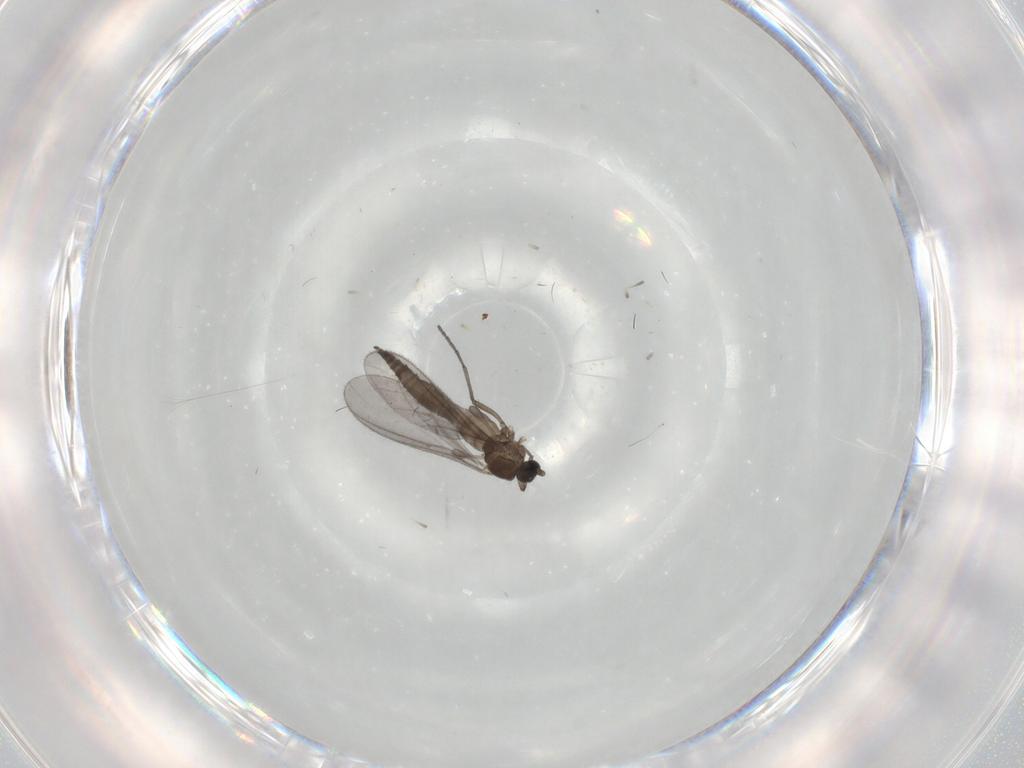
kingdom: Animalia
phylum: Arthropoda
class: Insecta
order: Diptera
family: Sciaridae
